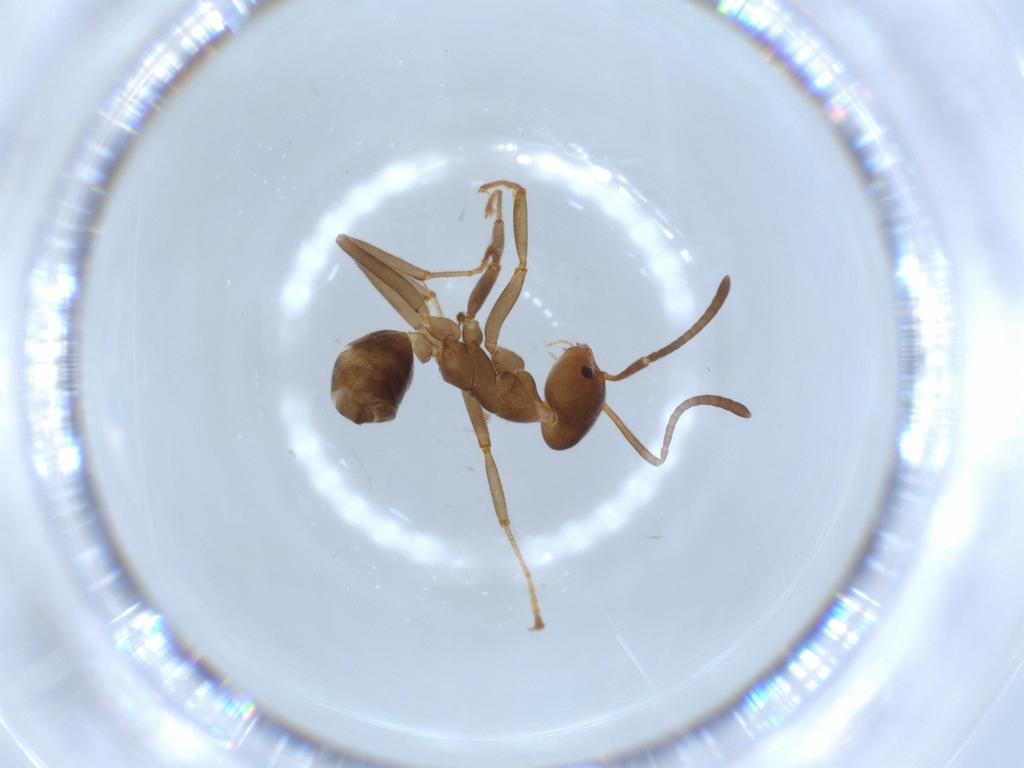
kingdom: Animalia
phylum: Arthropoda
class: Insecta
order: Hymenoptera
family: Formicidae
